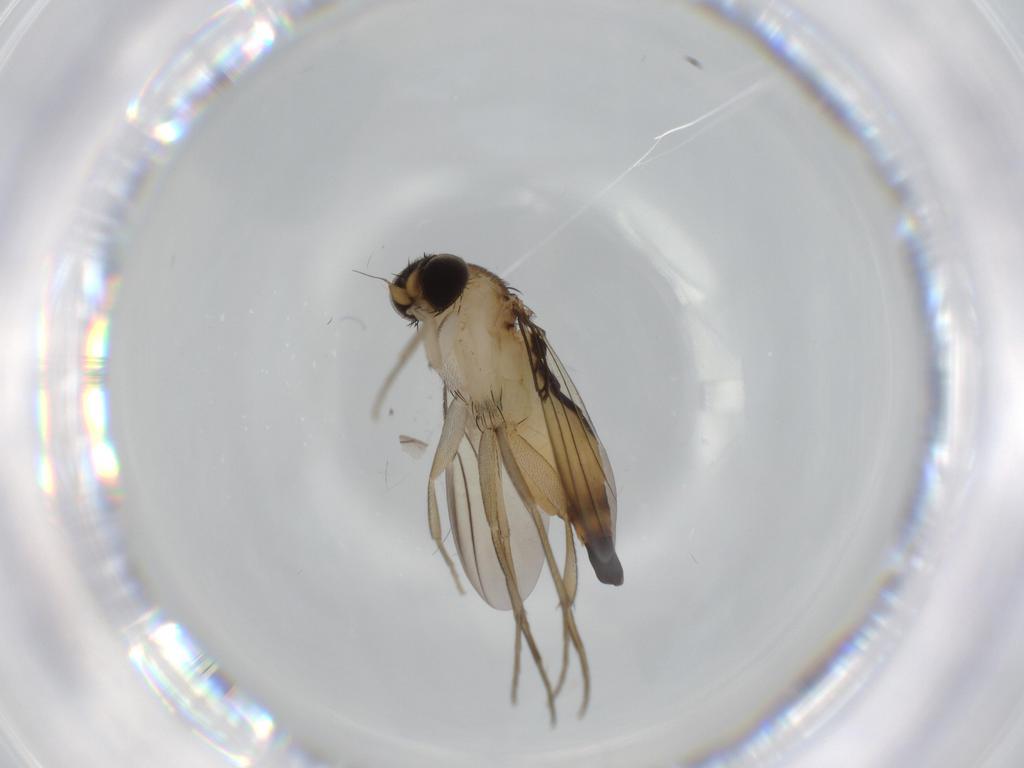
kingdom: Animalia
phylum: Arthropoda
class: Insecta
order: Diptera
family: Phoridae
